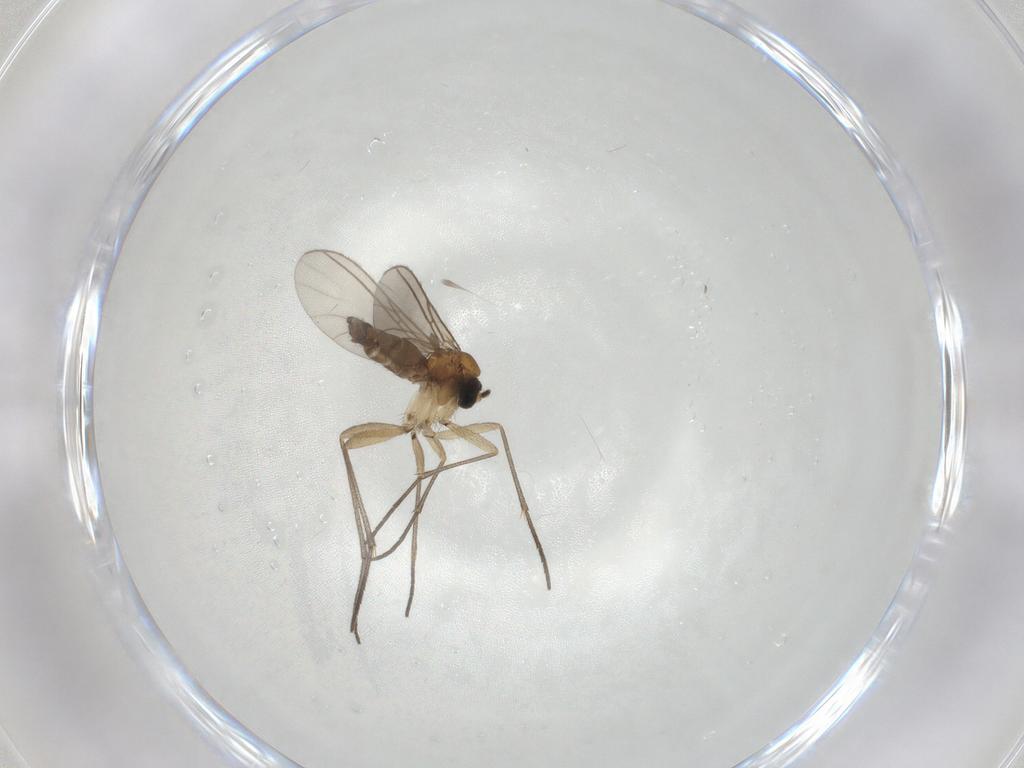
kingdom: Animalia
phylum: Arthropoda
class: Insecta
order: Diptera
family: Sciaridae
